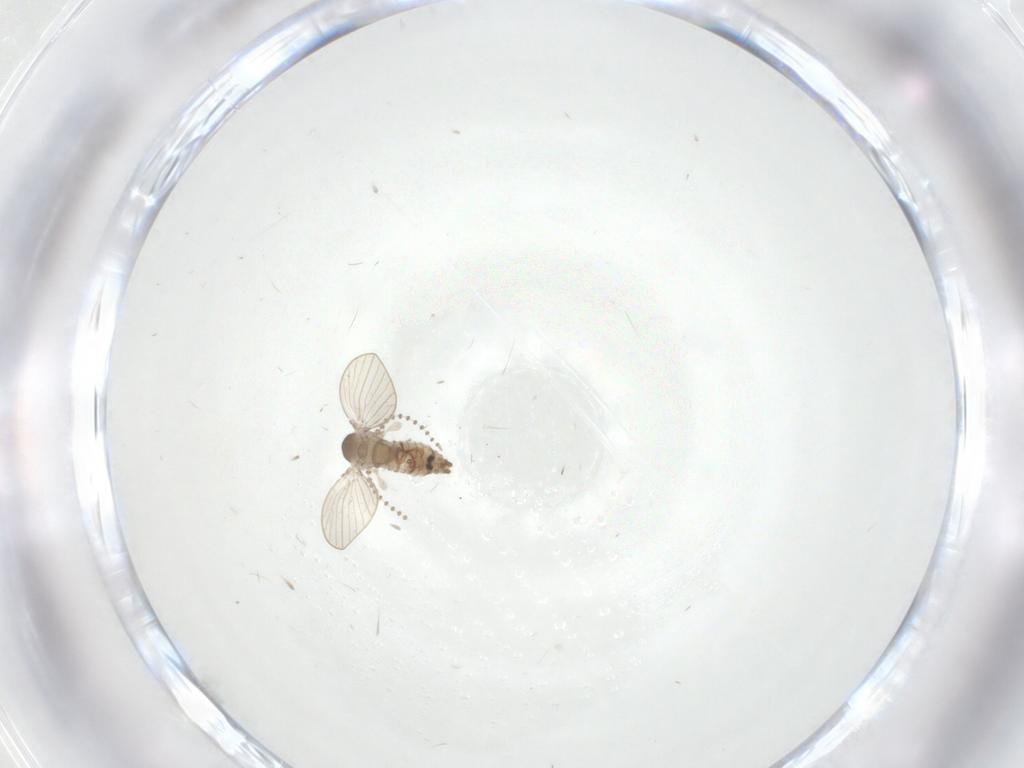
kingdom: Animalia
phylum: Arthropoda
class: Insecta
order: Diptera
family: Psychodidae
